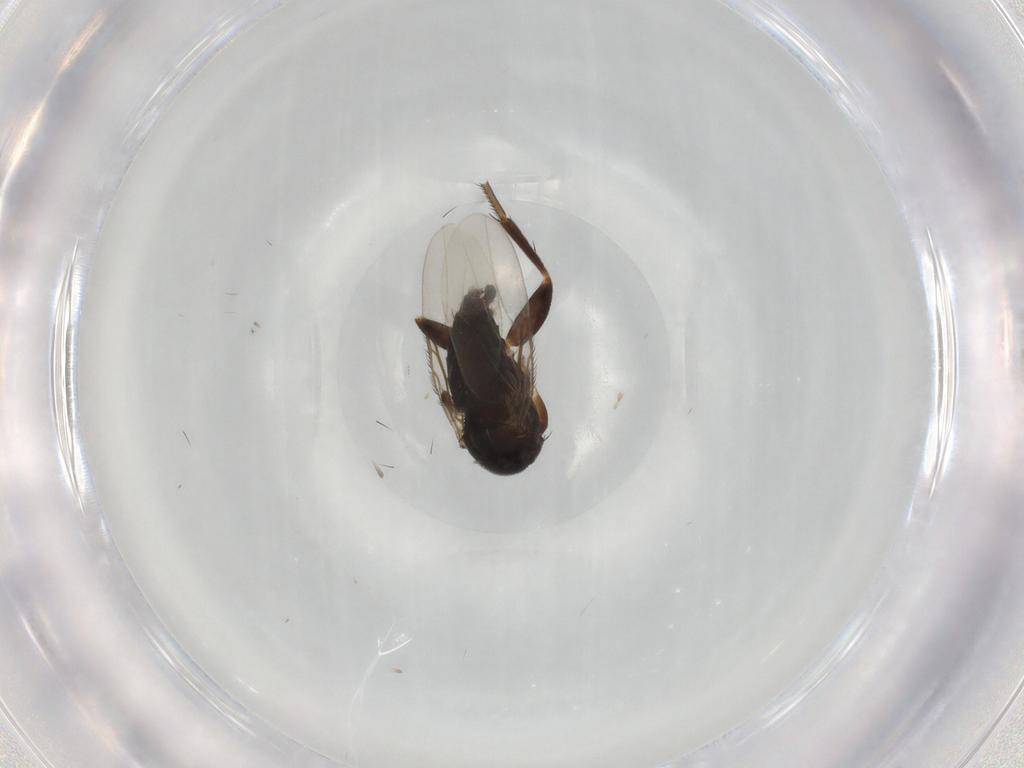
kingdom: Animalia
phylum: Arthropoda
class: Insecta
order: Diptera
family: Phoridae
